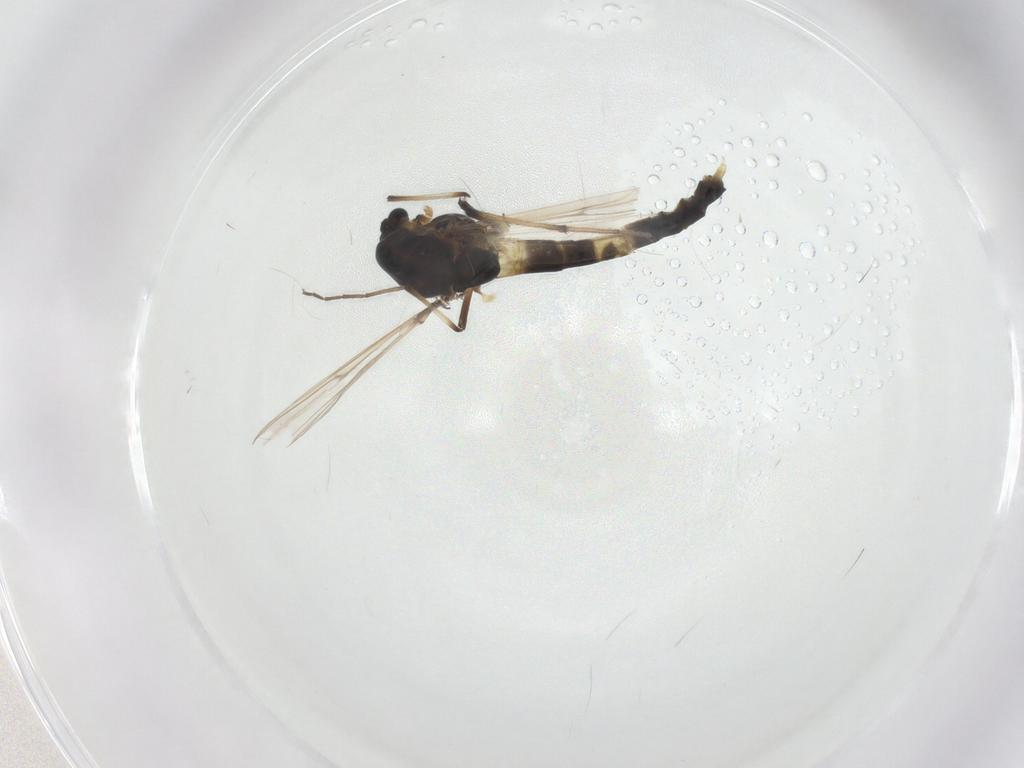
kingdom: Animalia
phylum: Arthropoda
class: Insecta
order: Diptera
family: Chironomidae
